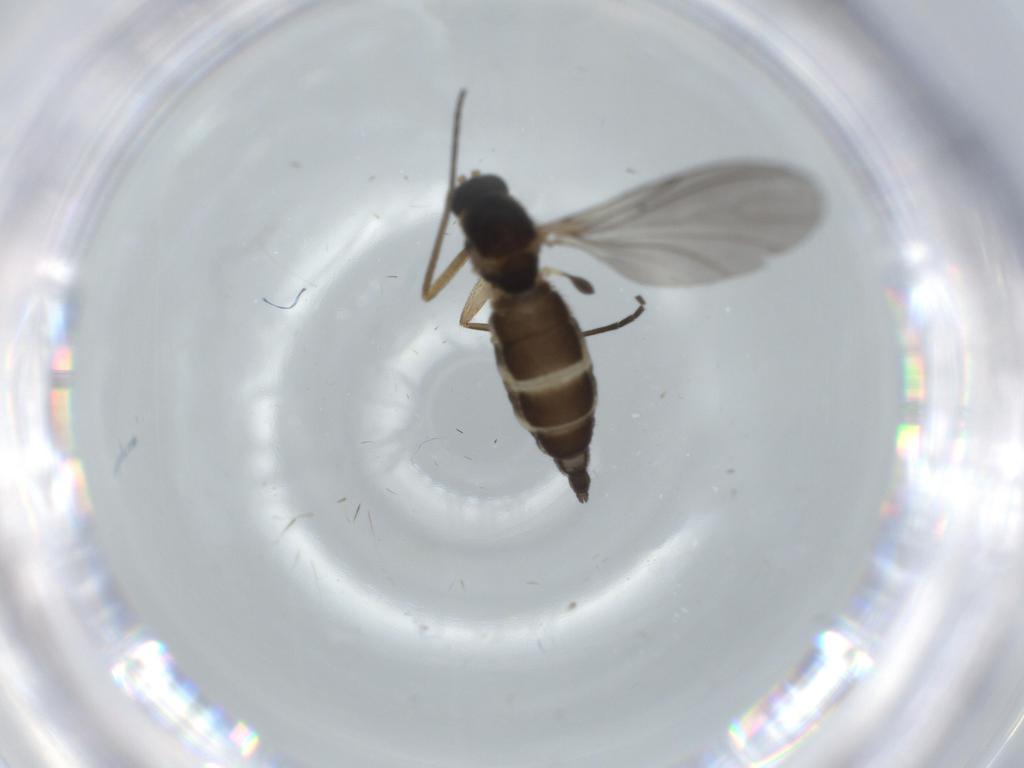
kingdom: Animalia
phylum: Arthropoda
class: Insecta
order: Diptera
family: Sciaridae
